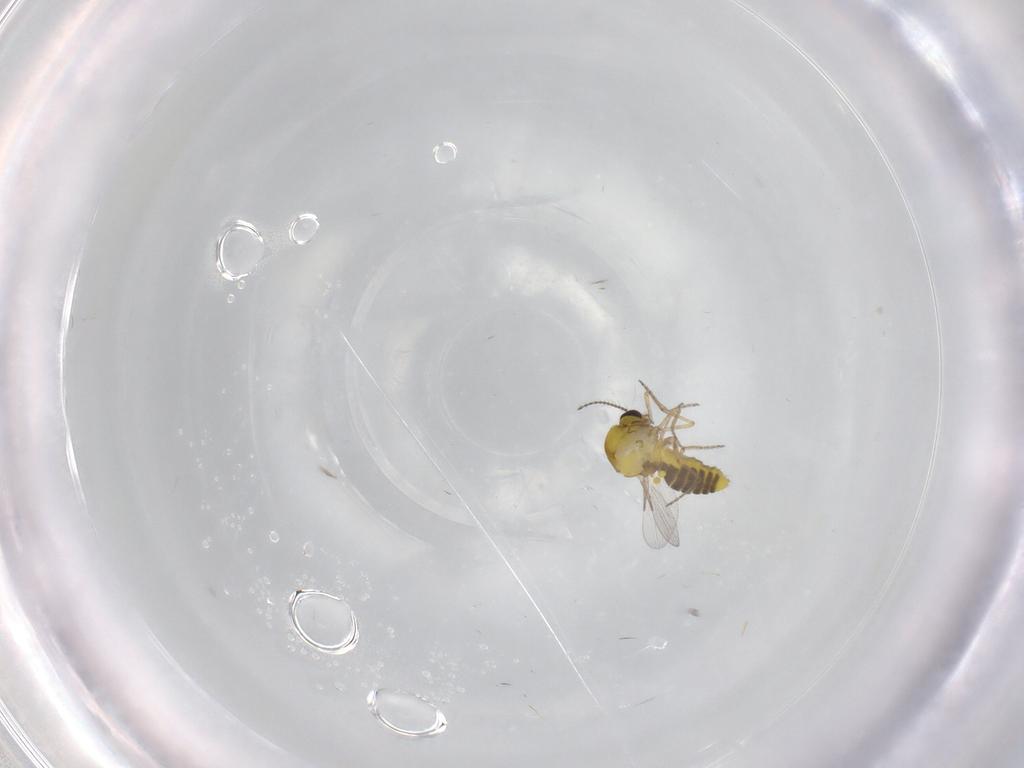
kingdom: Animalia
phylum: Arthropoda
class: Insecta
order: Diptera
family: Sciaridae
